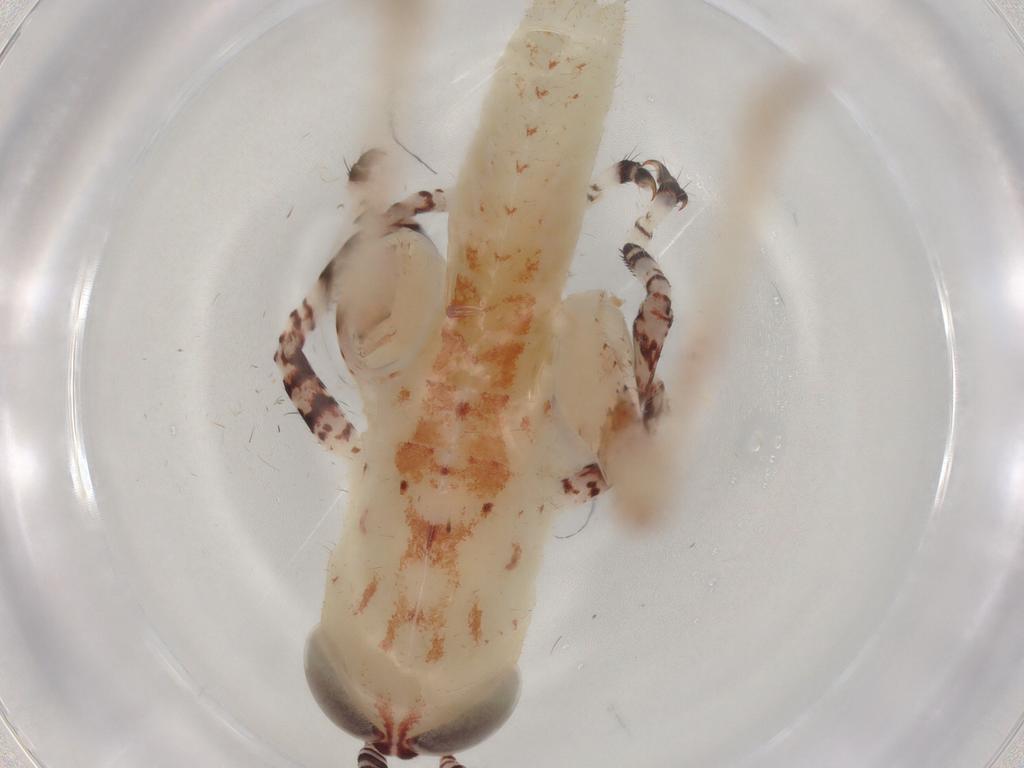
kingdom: Animalia
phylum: Arthropoda
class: Insecta
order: Orthoptera
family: Acrididae
